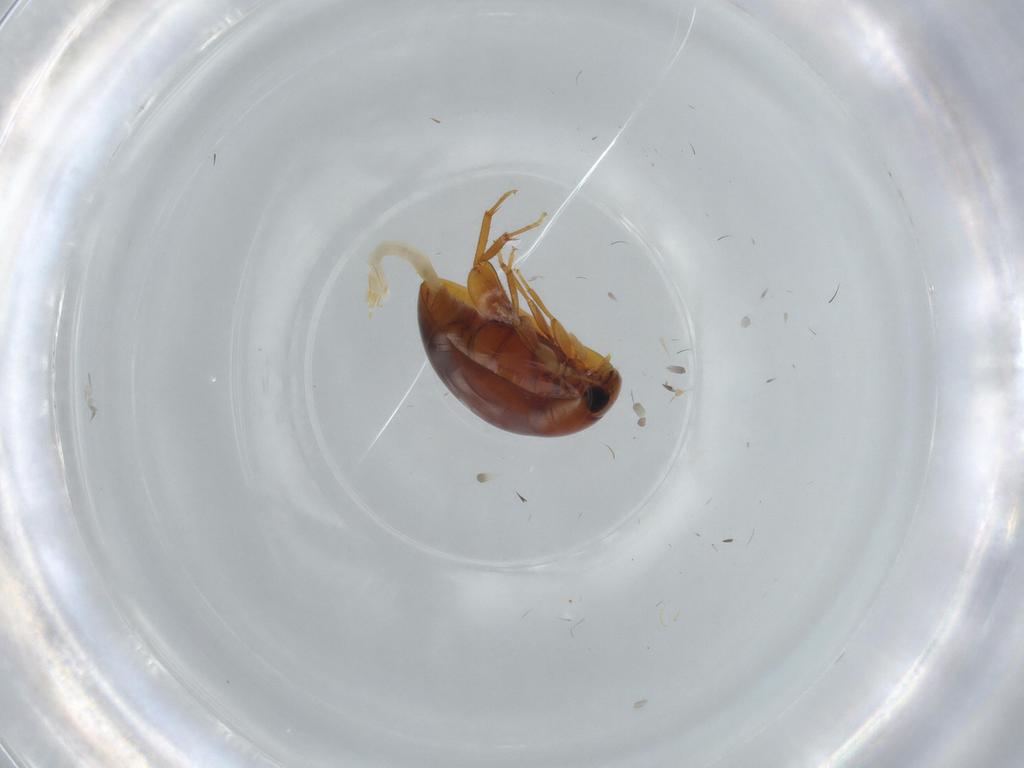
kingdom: Animalia
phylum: Arthropoda
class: Insecta
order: Coleoptera
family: Phalacridae
